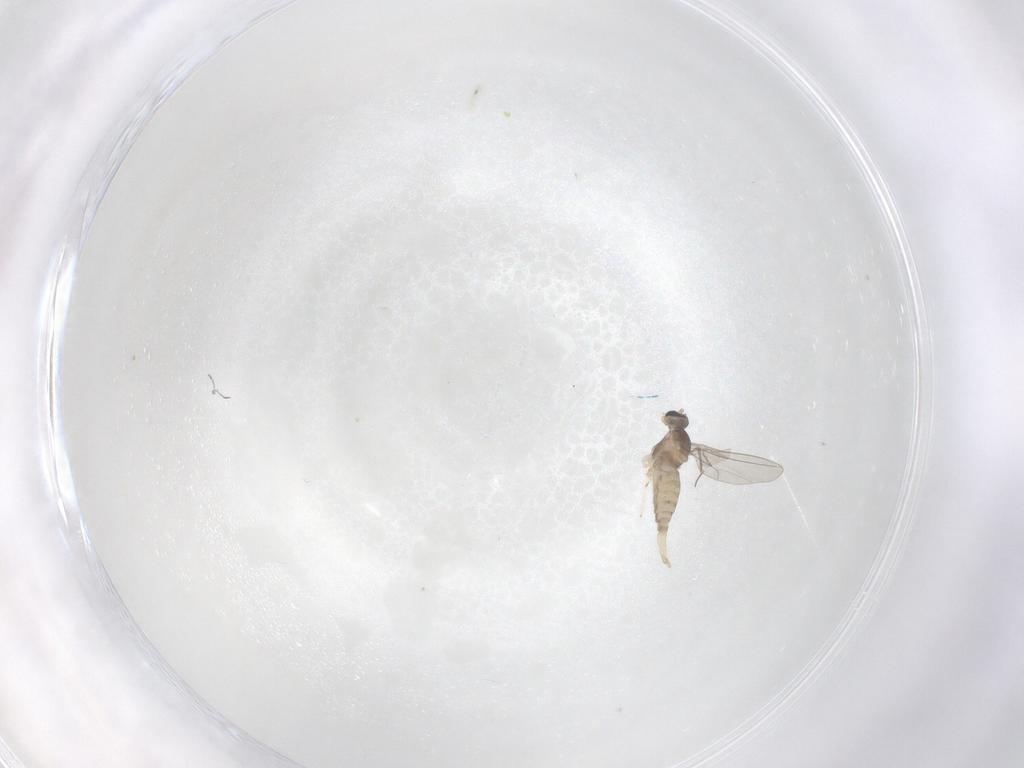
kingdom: Animalia
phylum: Arthropoda
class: Insecta
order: Diptera
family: Cecidomyiidae
